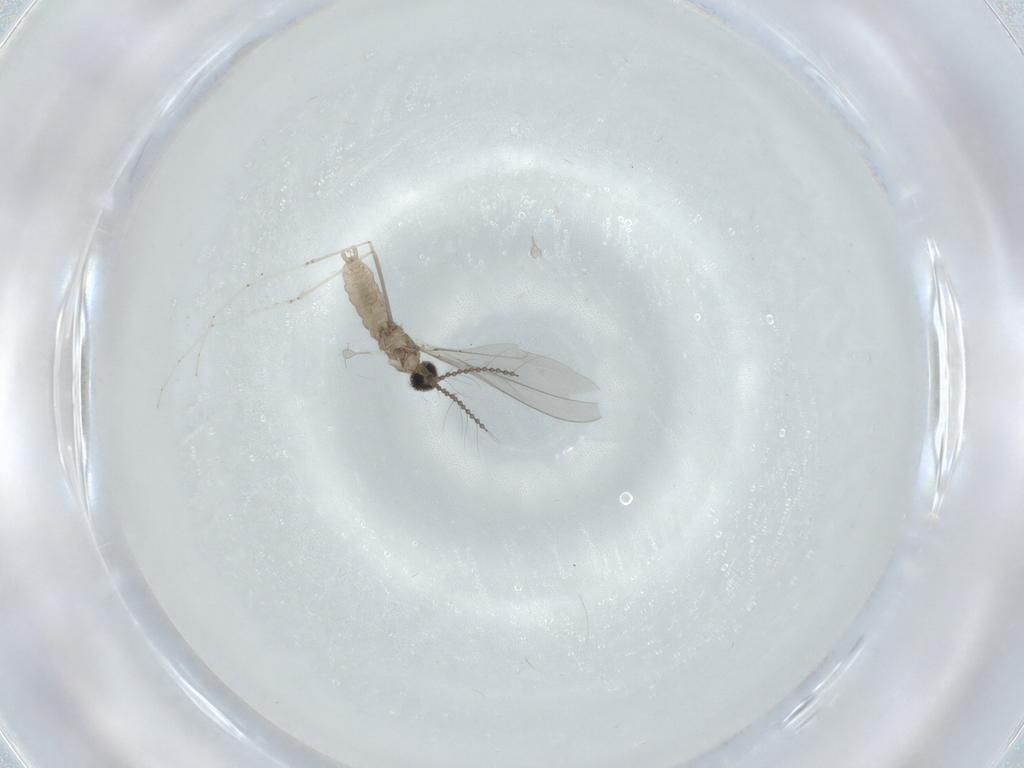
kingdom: Animalia
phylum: Arthropoda
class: Insecta
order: Diptera
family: Cecidomyiidae
